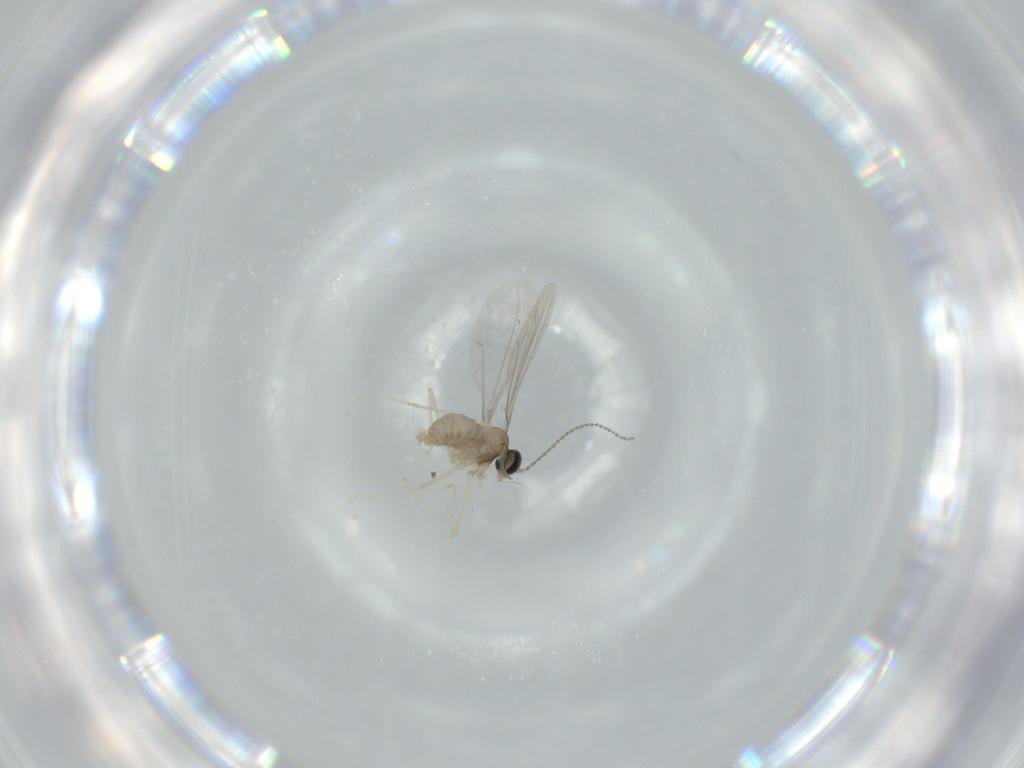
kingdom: Animalia
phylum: Arthropoda
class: Insecta
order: Diptera
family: Cecidomyiidae
